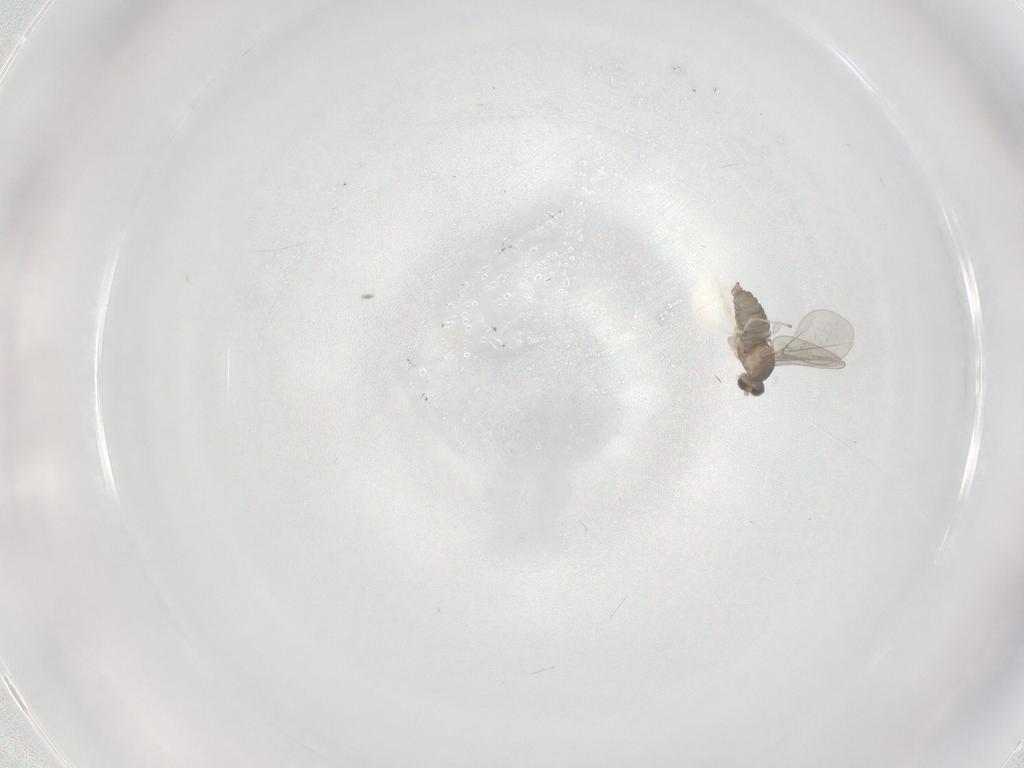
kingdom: Animalia
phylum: Arthropoda
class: Insecta
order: Diptera
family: Cecidomyiidae
